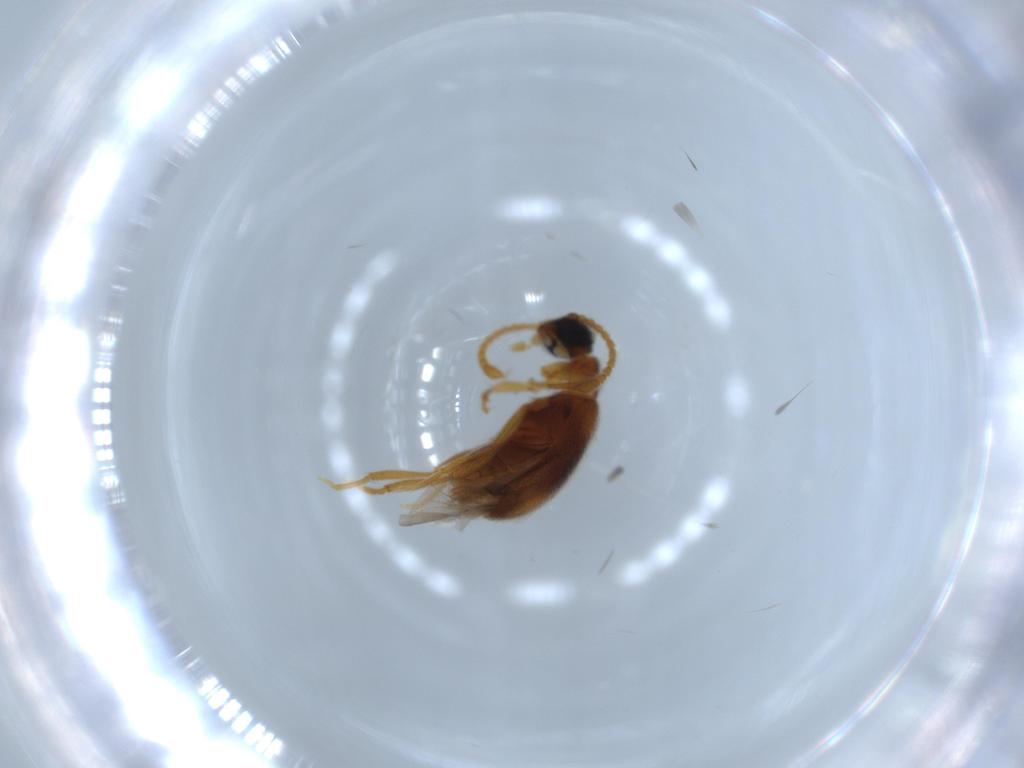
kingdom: Animalia
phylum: Arthropoda
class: Insecta
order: Coleoptera
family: Aderidae
